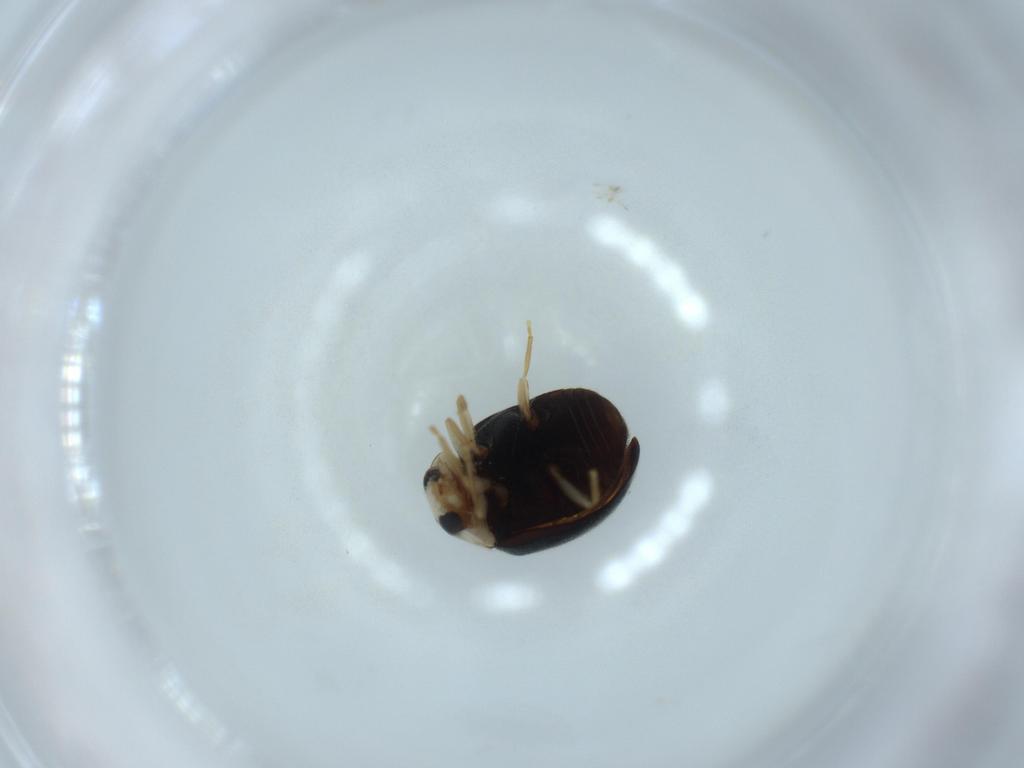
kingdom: Animalia
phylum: Arthropoda
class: Insecta
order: Coleoptera
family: Coccinellidae
